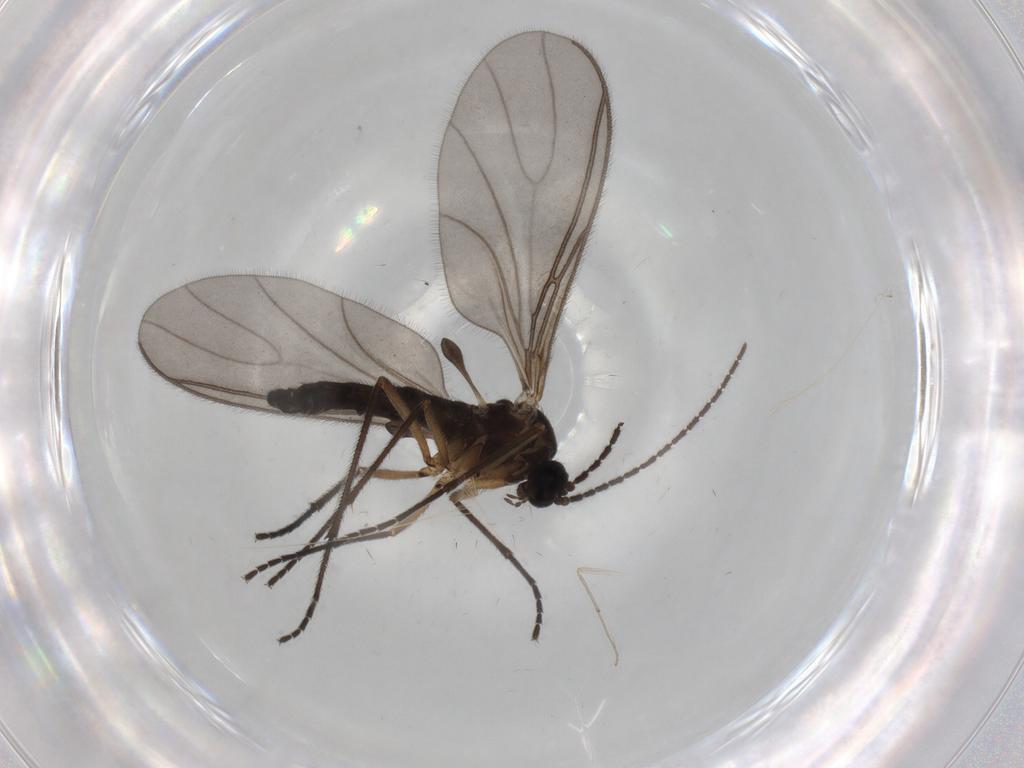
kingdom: Animalia
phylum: Arthropoda
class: Insecta
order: Diptera
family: Sciaridae
